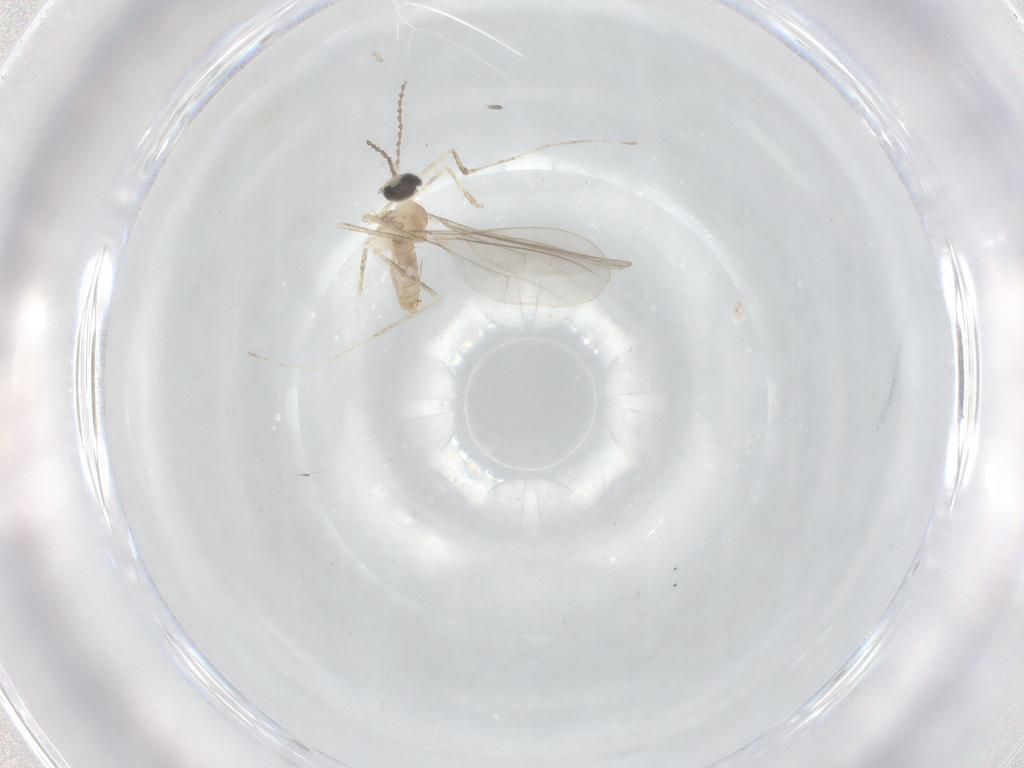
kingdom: Animalia
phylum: Arthropoda
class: Insecta
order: Diptera
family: Cecidomyiidae
